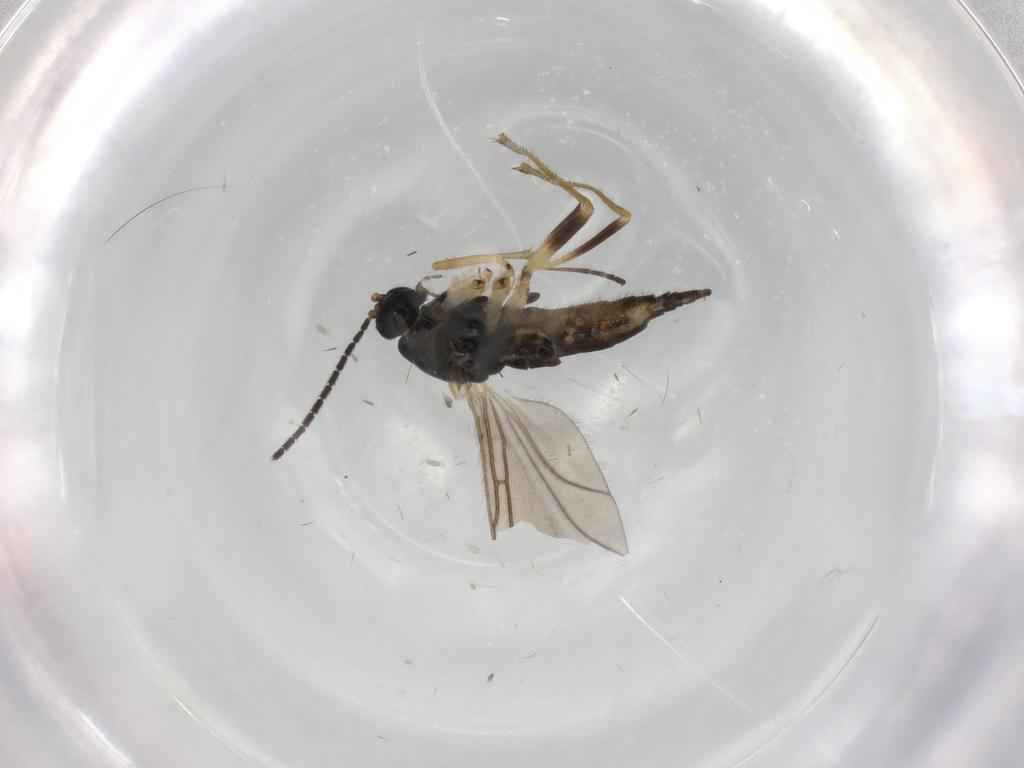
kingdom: Animalia
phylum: Arthropoda
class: Insecta
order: Diptera
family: Sciaridae
